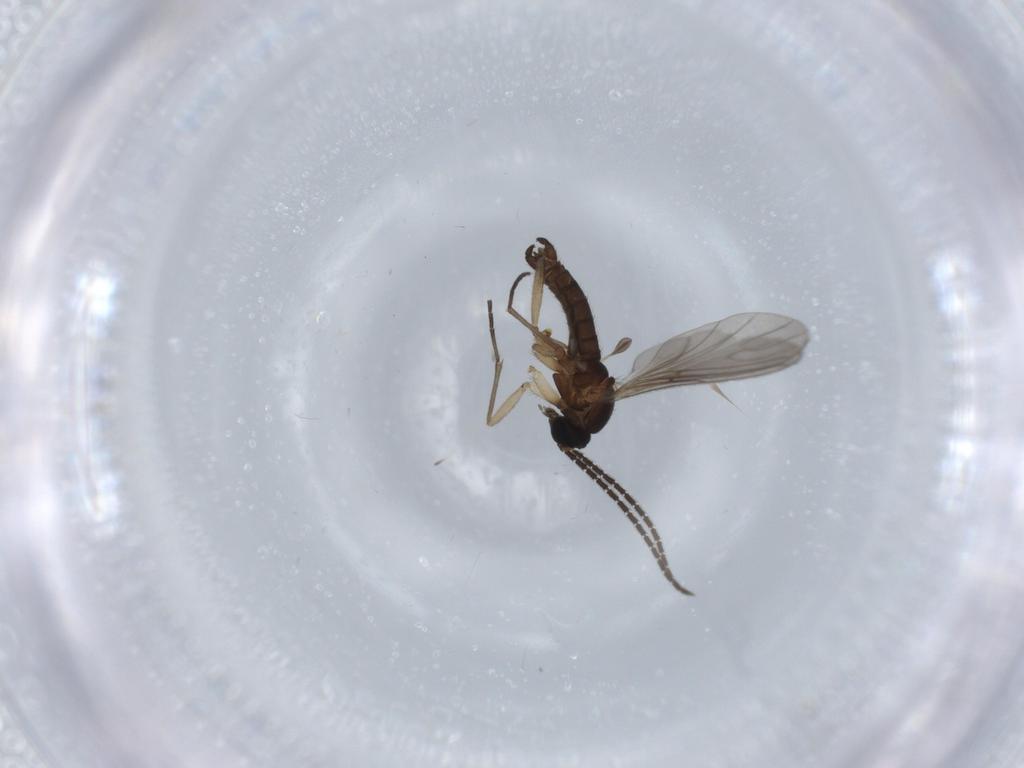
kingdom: Animalia
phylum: Arthropoda
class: Insecta
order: Diptera
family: Sciaridae
